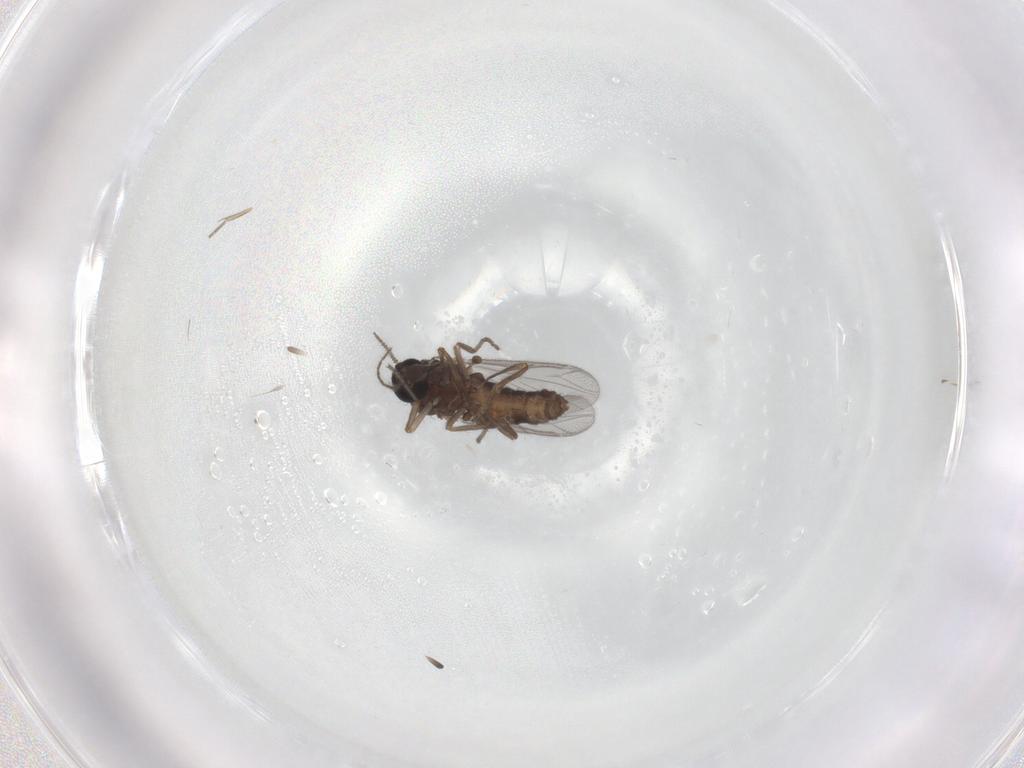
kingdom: Animalia
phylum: Arthropoda
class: Insecta
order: Diptera
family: Ceratopogonidae
